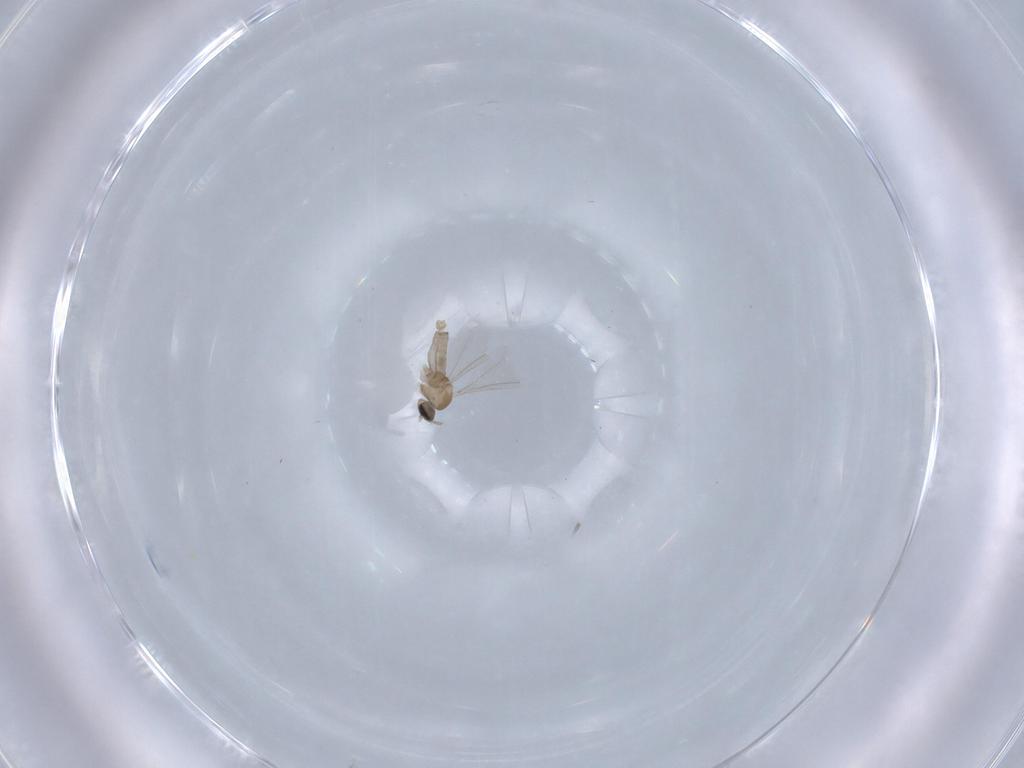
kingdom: Animalia
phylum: Arthropoda
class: Insecta
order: Diptera
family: Cecidomyiidae
